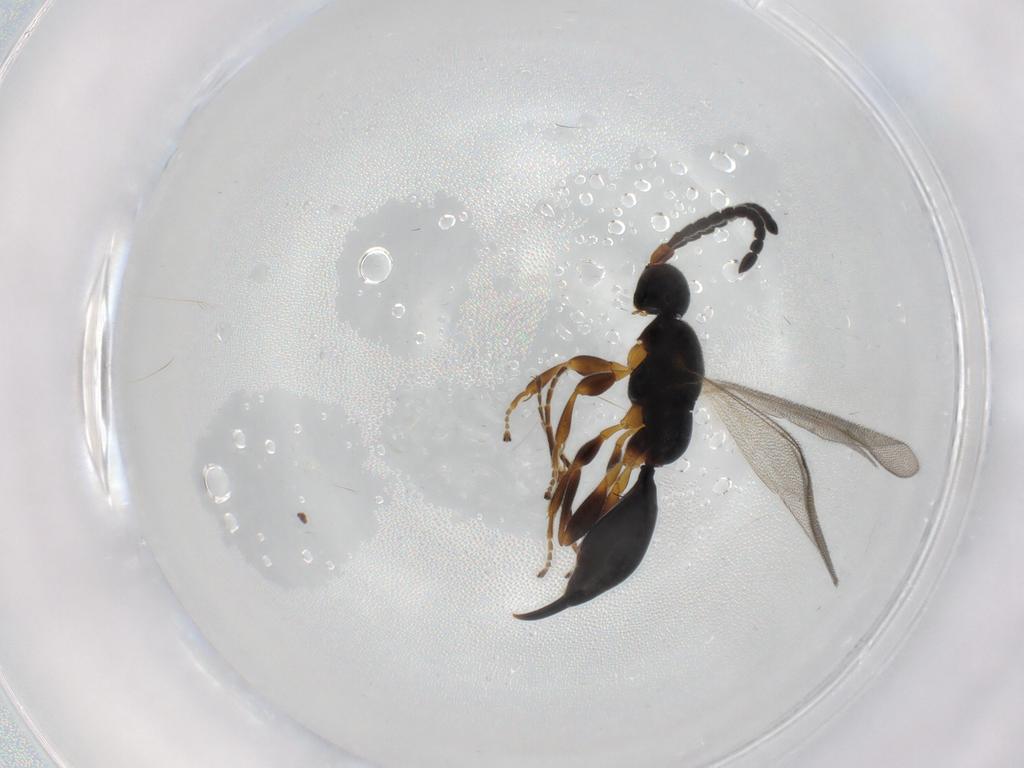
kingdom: Animalia
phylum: Arthropoda
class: Insecta
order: Hymenoptera
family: Proctotrupidae
